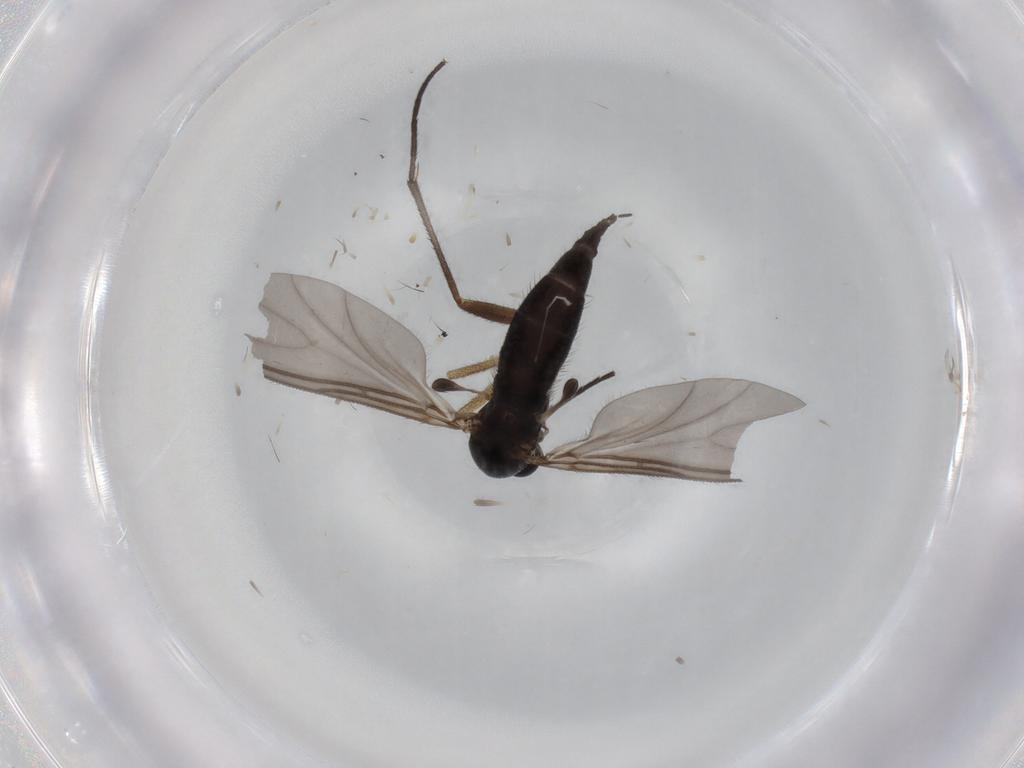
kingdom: Animalia
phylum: Arthropoda
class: Insecta
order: Diptera
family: Sciaridae
